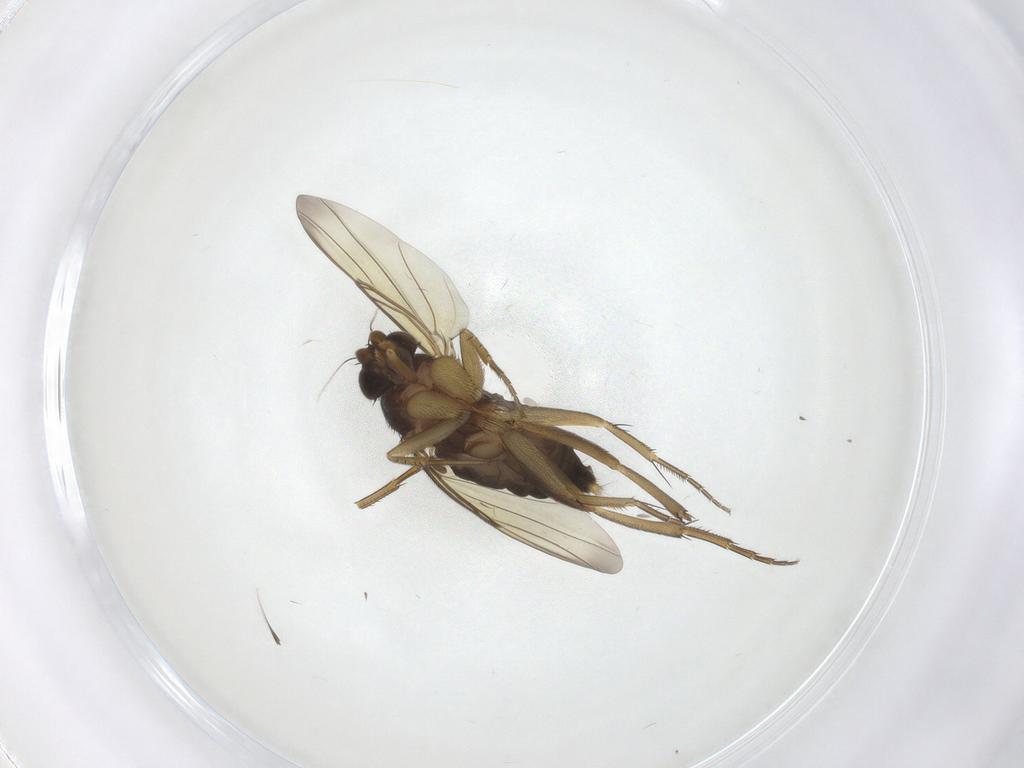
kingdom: Animalia
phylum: Arthropoda
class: Insecta
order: Diptera
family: Phoridae
